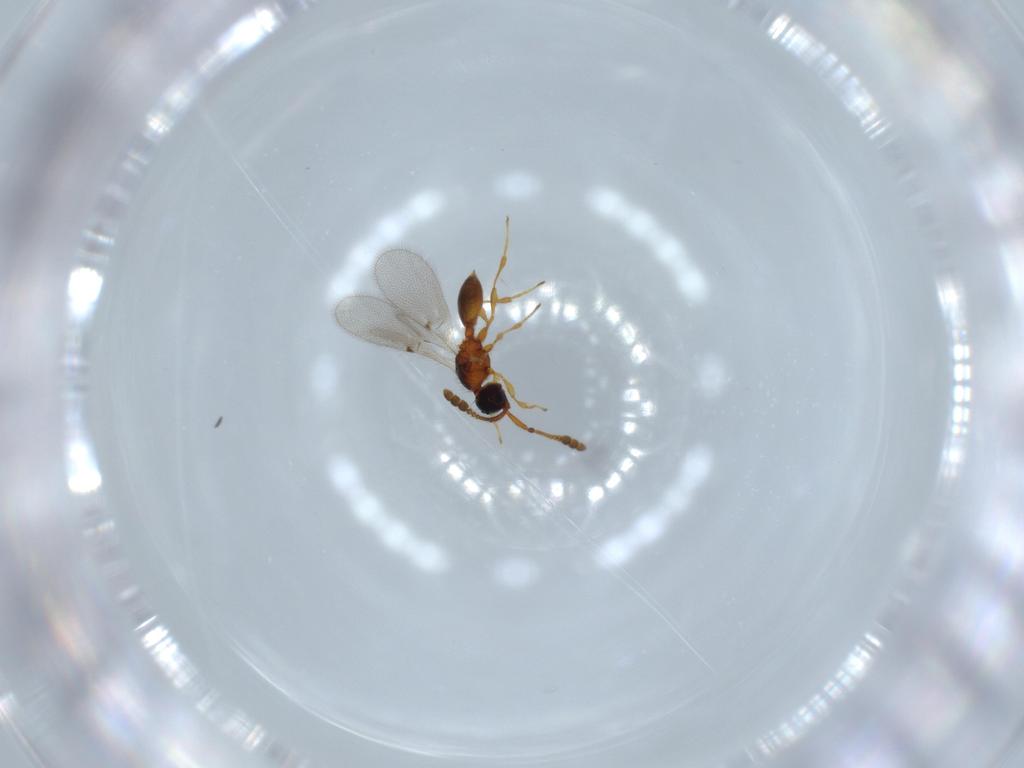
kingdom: Animalia
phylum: Arthropoda
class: Insecta
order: Hymenoptera
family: Diapriidae
